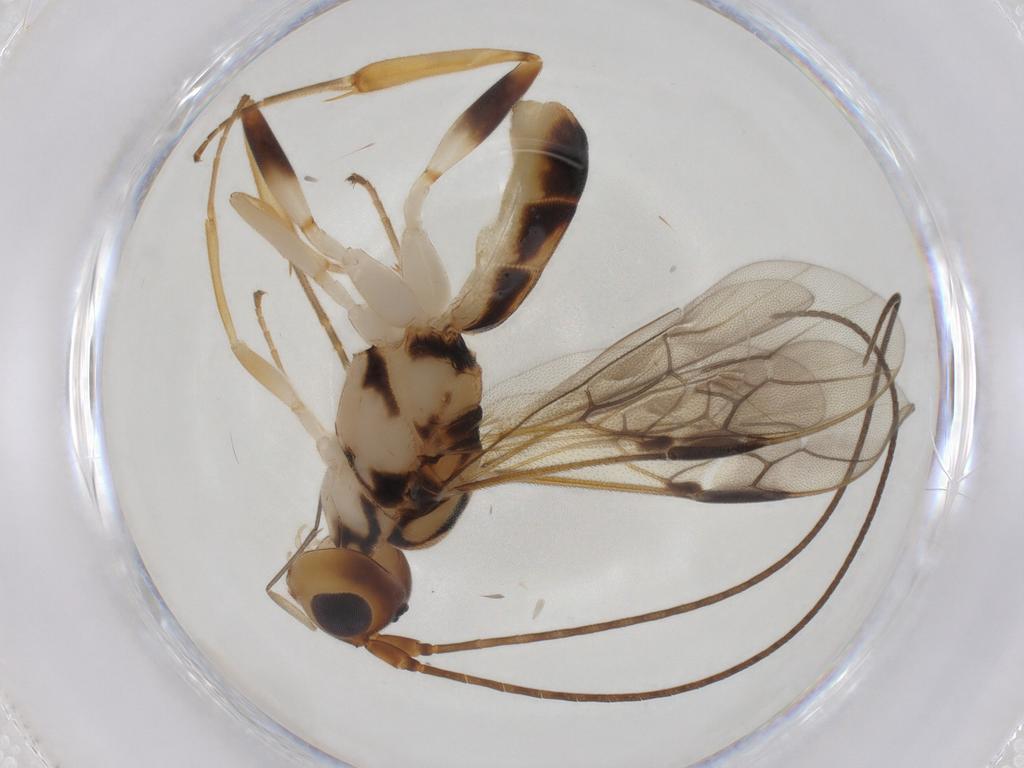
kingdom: Animalia
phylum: Arthropoda
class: Insecta
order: Hymenoptera
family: Braconidae
